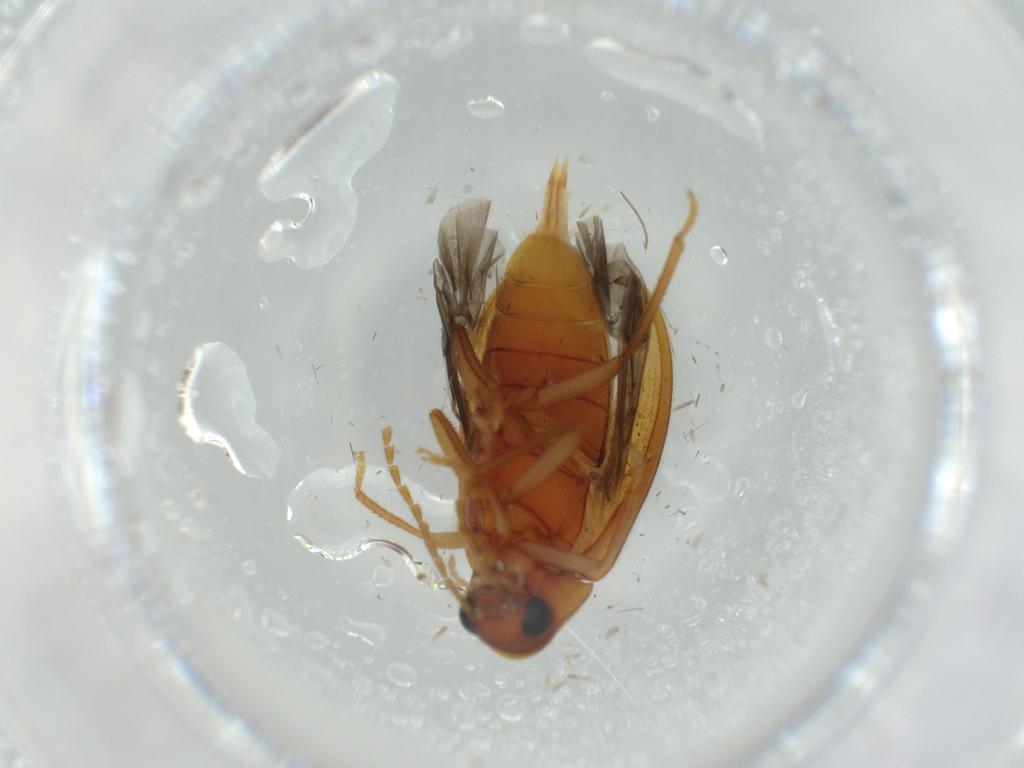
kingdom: Animalia
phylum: Arthropoda
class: Insecta
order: Coleoptera
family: Ptilodactylidae
